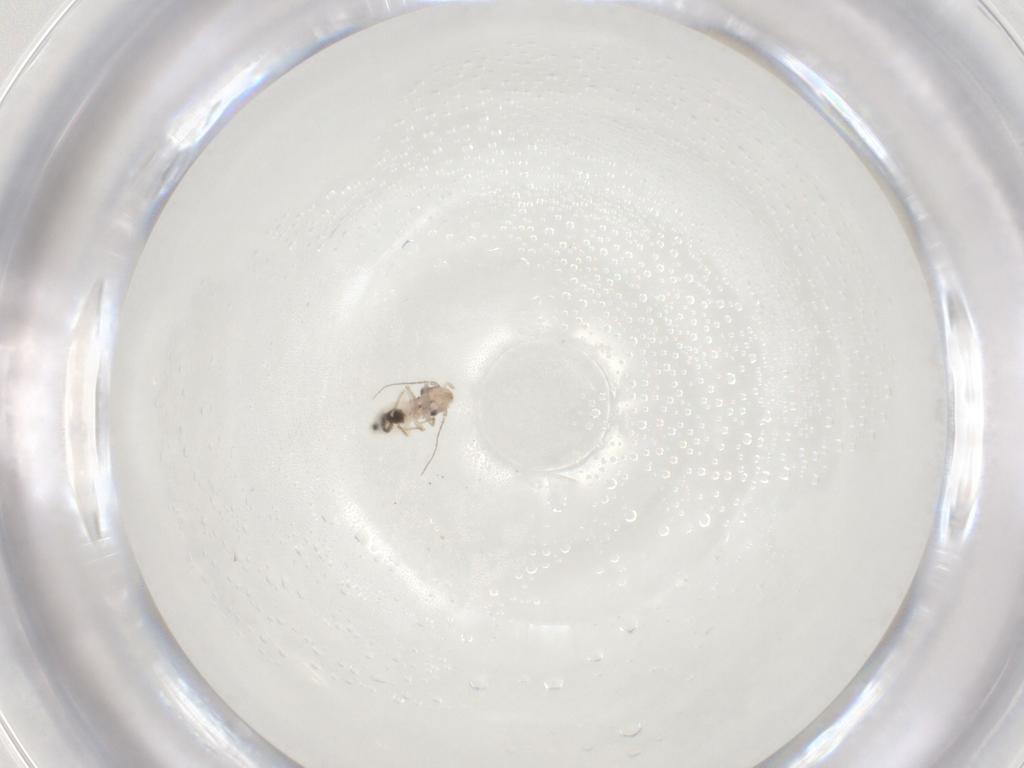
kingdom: Animalia
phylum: Arthropoda
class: Insecta
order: Psocodea
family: Lepidopsocidae
